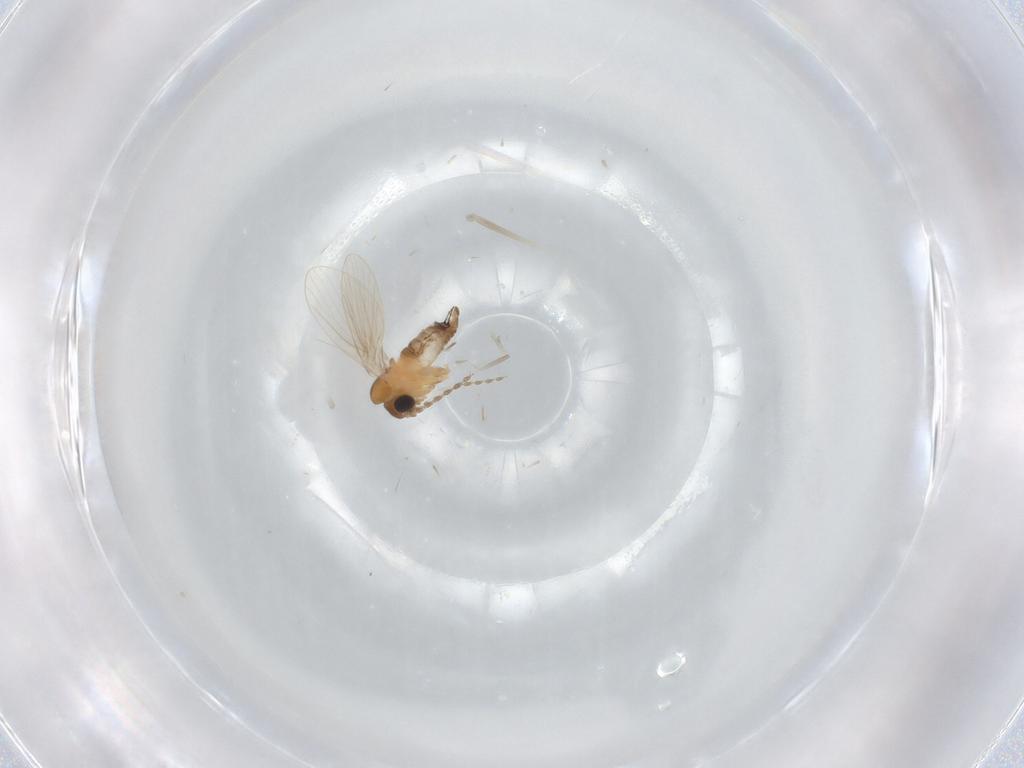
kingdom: Animalia
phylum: Arthropoda
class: Insecta
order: Diptera
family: Psychodidae
